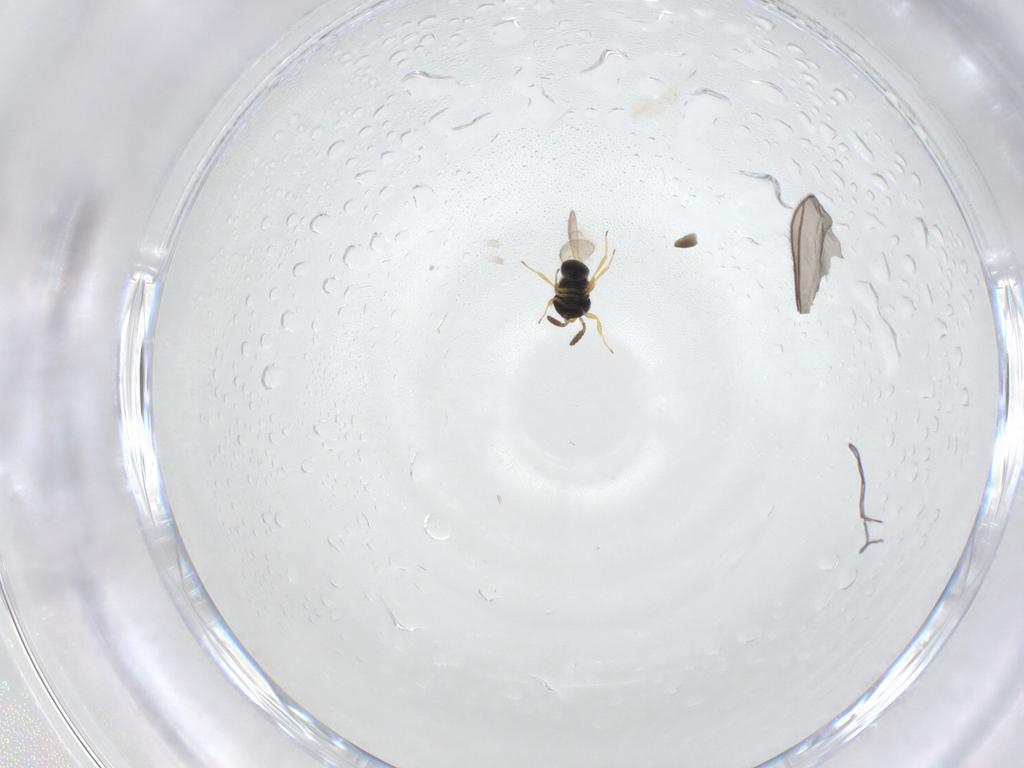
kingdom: Animalia
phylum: Arthropoda
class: Insecta
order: Hymenoptera
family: Scelionidae
